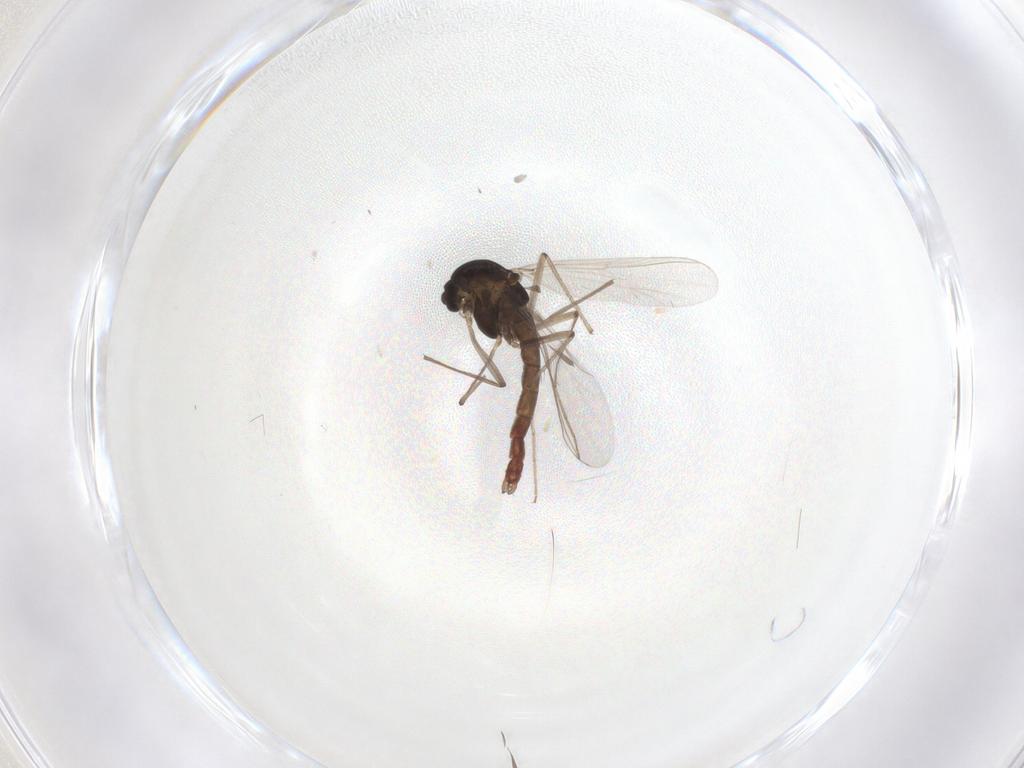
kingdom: Animalia
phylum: Arthropoda
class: Insecta
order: Diptera
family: Chironomidae
